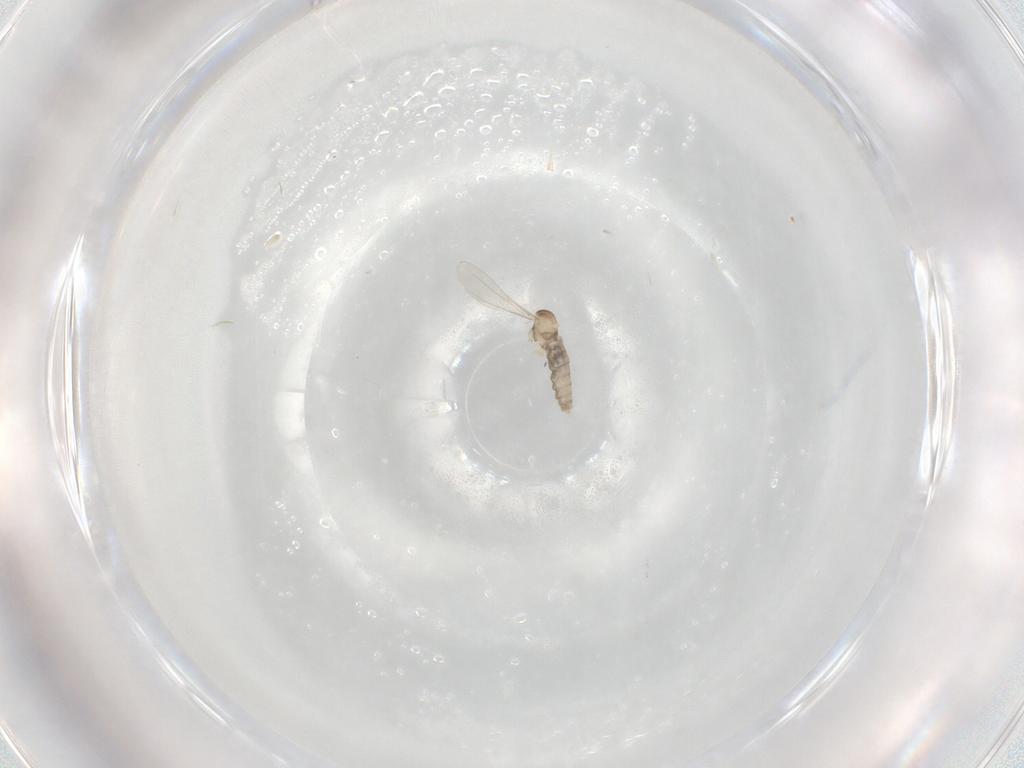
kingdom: Animalia
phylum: Arthropoda
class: Insecta
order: Diptera
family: Cecidomyiidae
